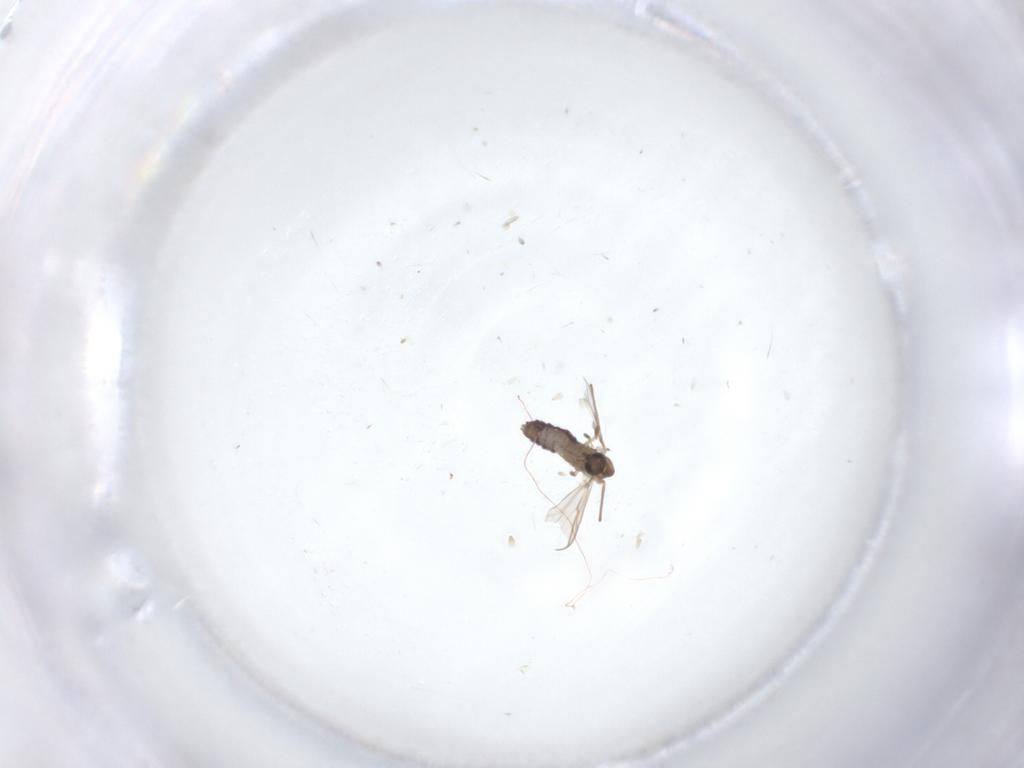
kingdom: Animalia
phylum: Arthropoda
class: Insecta
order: Diptera
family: Chironomidae
